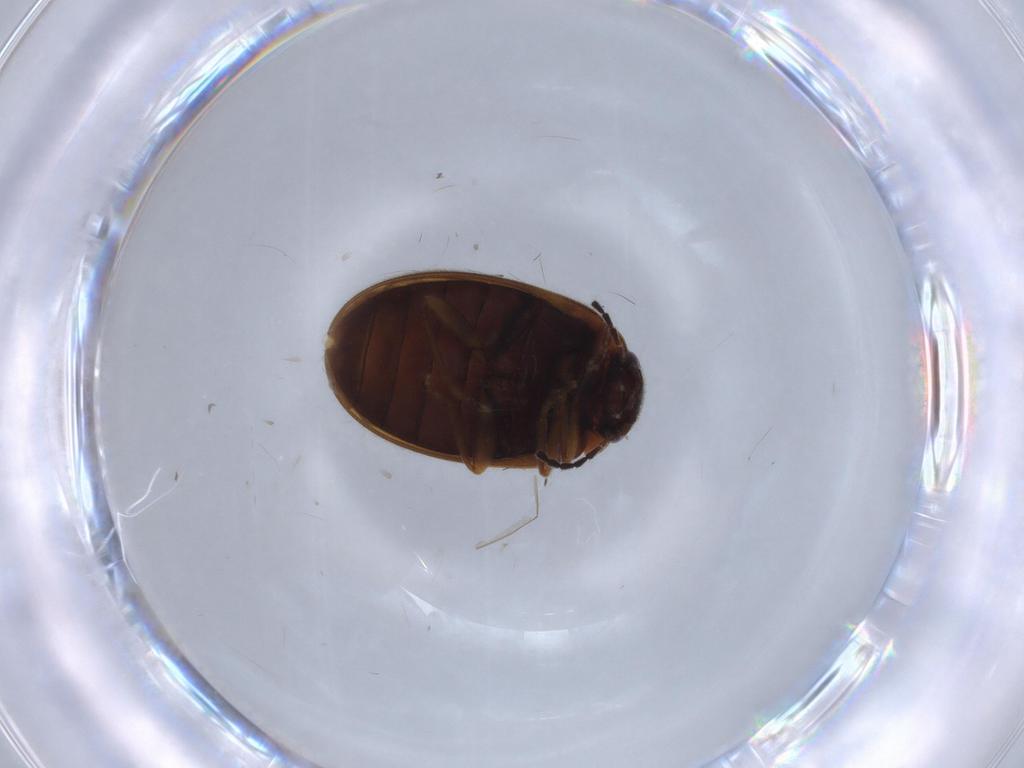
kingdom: Animalia
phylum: Arthropoda
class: Insecta
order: Coleoptera
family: Scirtidae
